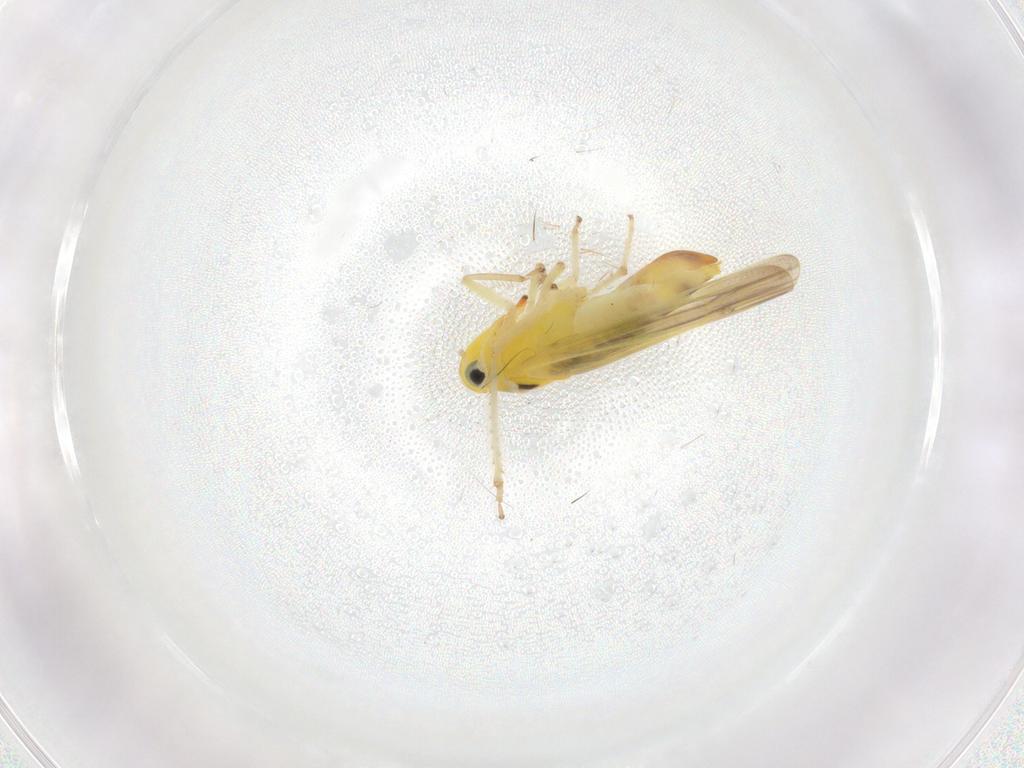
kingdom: Animalia
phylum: Arthropoda
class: Insecta
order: Hemiptera
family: Cicadellidae
